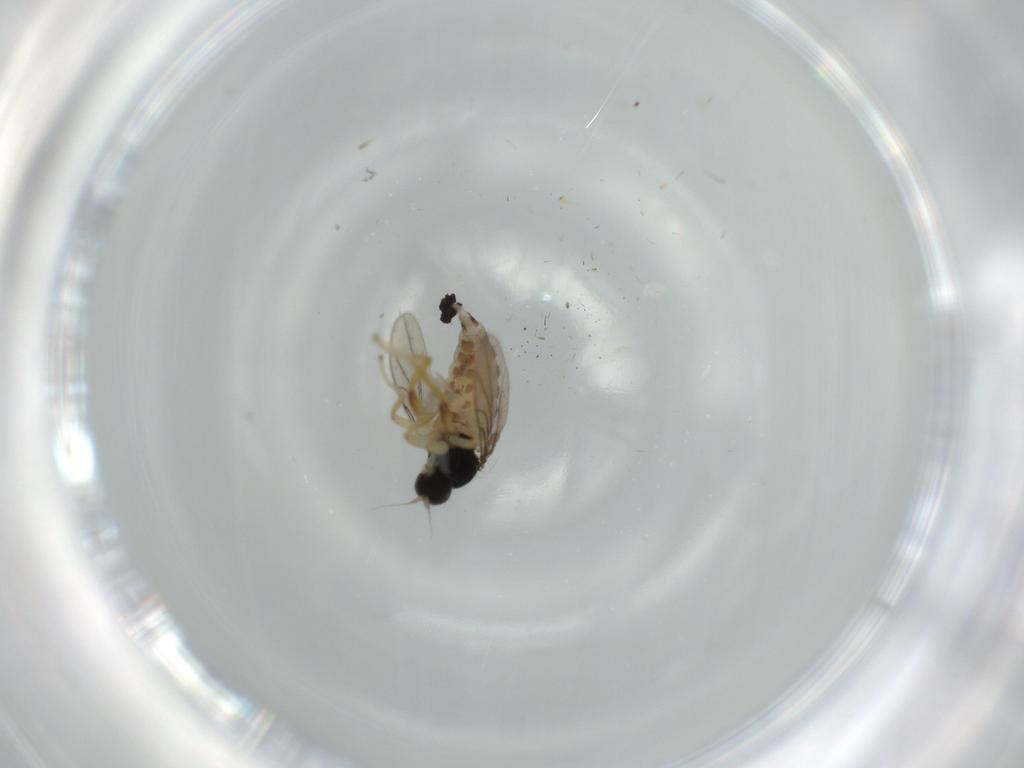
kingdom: Animalia
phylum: Arthropoda
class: Insecta
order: Diptera
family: Hybotidae
